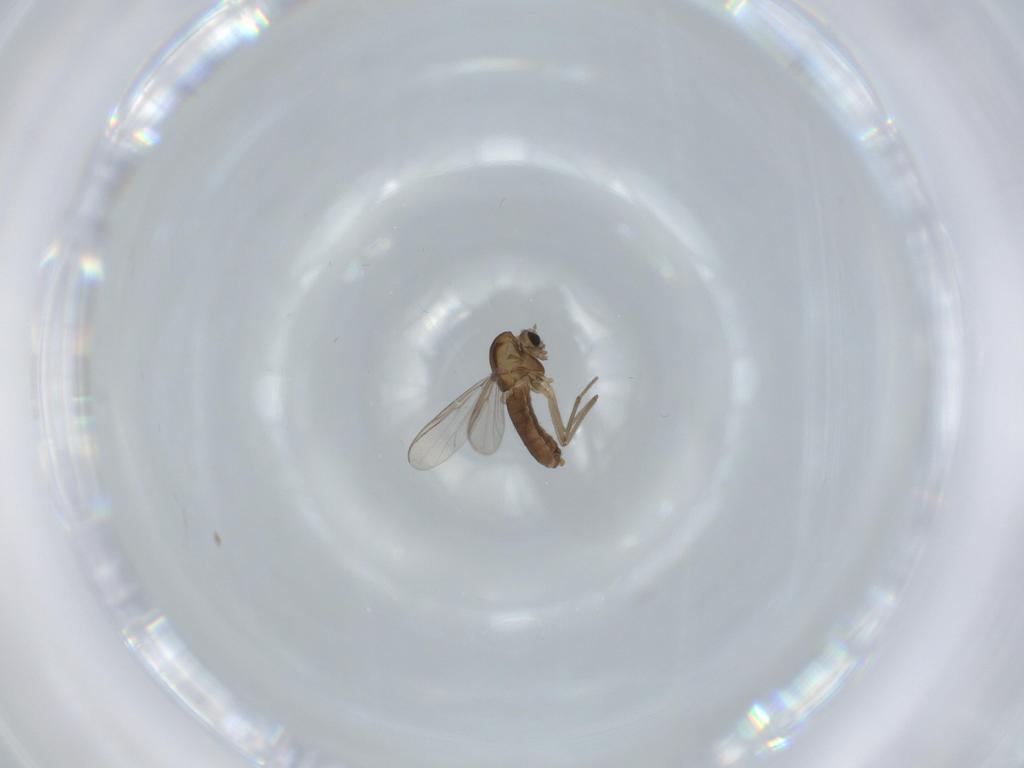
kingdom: Animalia
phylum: Arthropoda
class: Insecta
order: Diptera
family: Chironomidae
